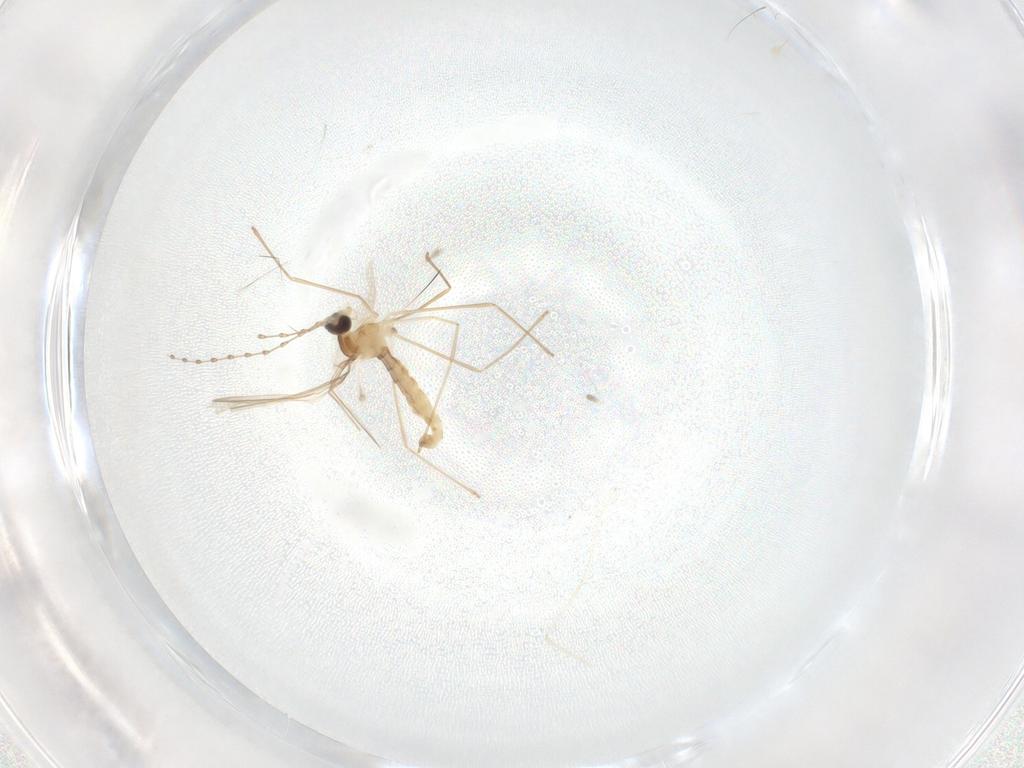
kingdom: Animalia
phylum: Arthropoda
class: Insecta
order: Diptera
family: Cecidomyiidae
